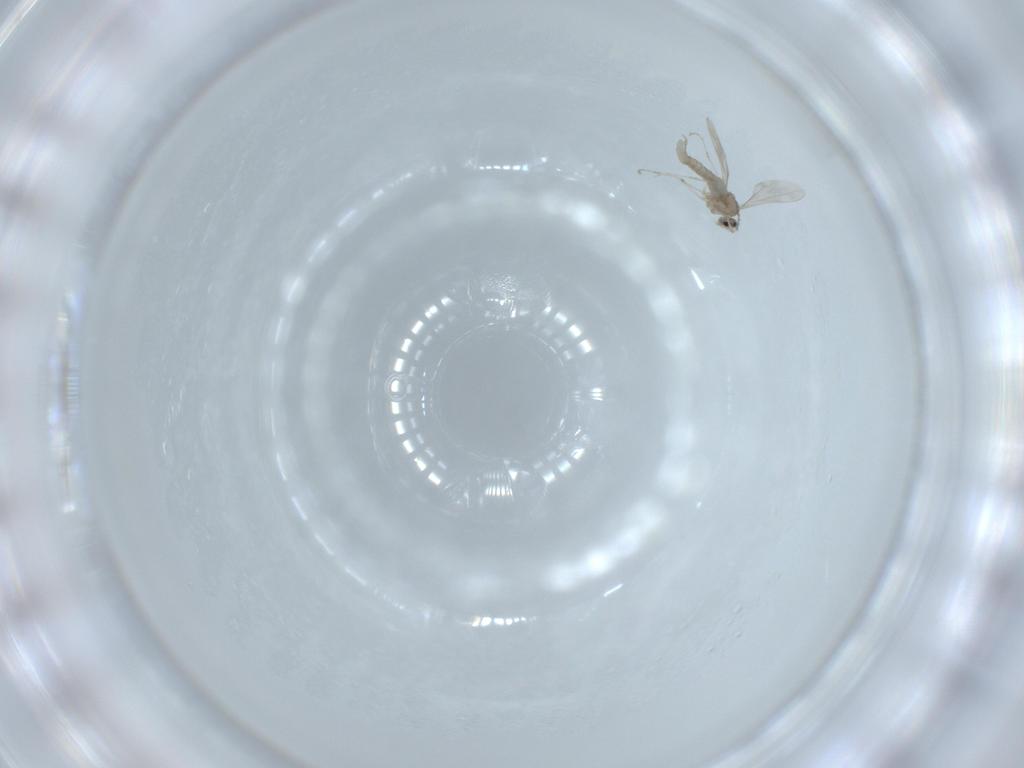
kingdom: Animalia
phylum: Arthropoda
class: Insecta
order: Diptera
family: Cecidomyiidae
